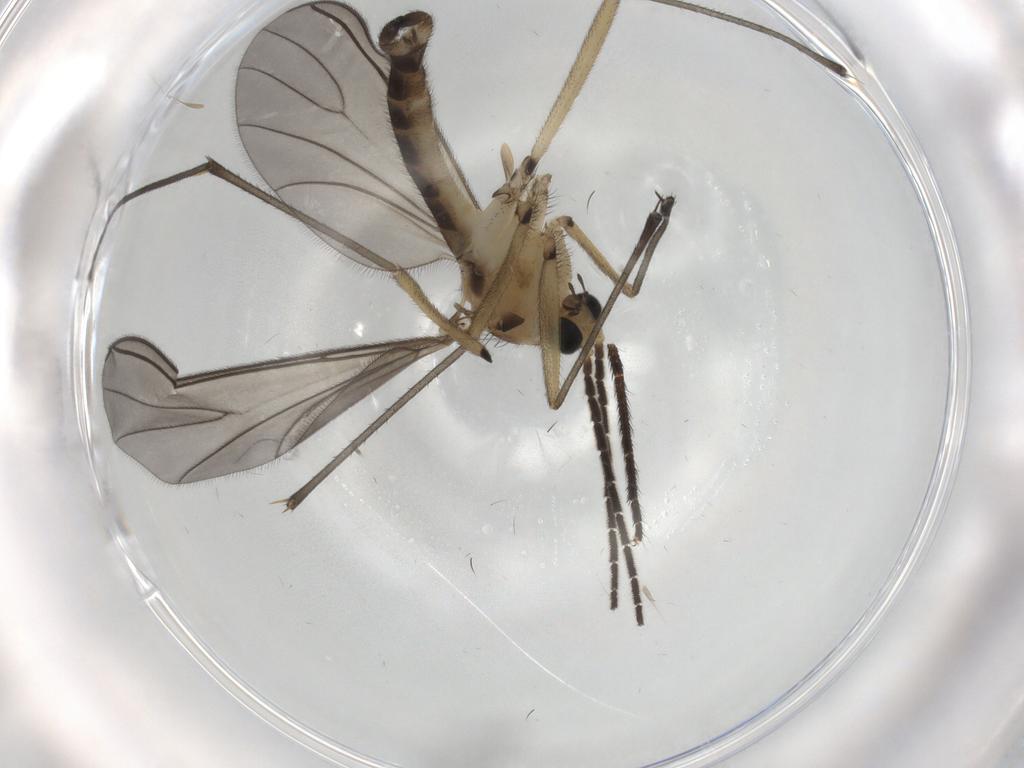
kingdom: Animalia
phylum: Arthropoda
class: Insecta
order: Diptera
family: Sciaridae
